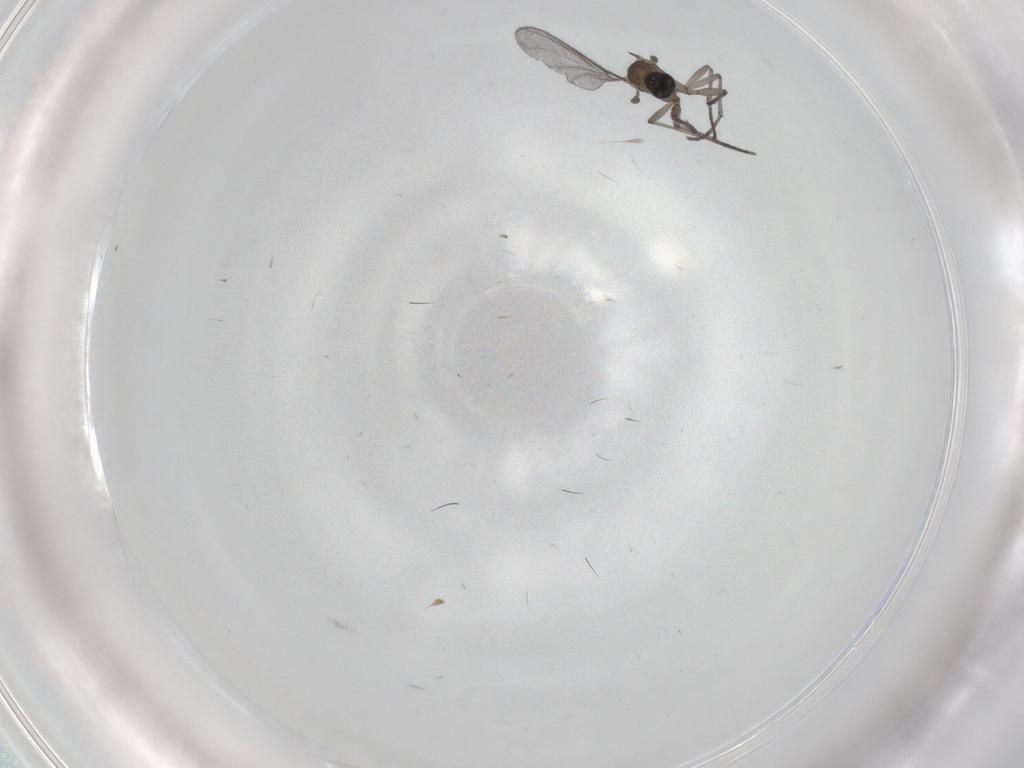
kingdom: Animalia
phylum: Arthropoda
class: Insecta
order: Diptera
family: Sciaridae
